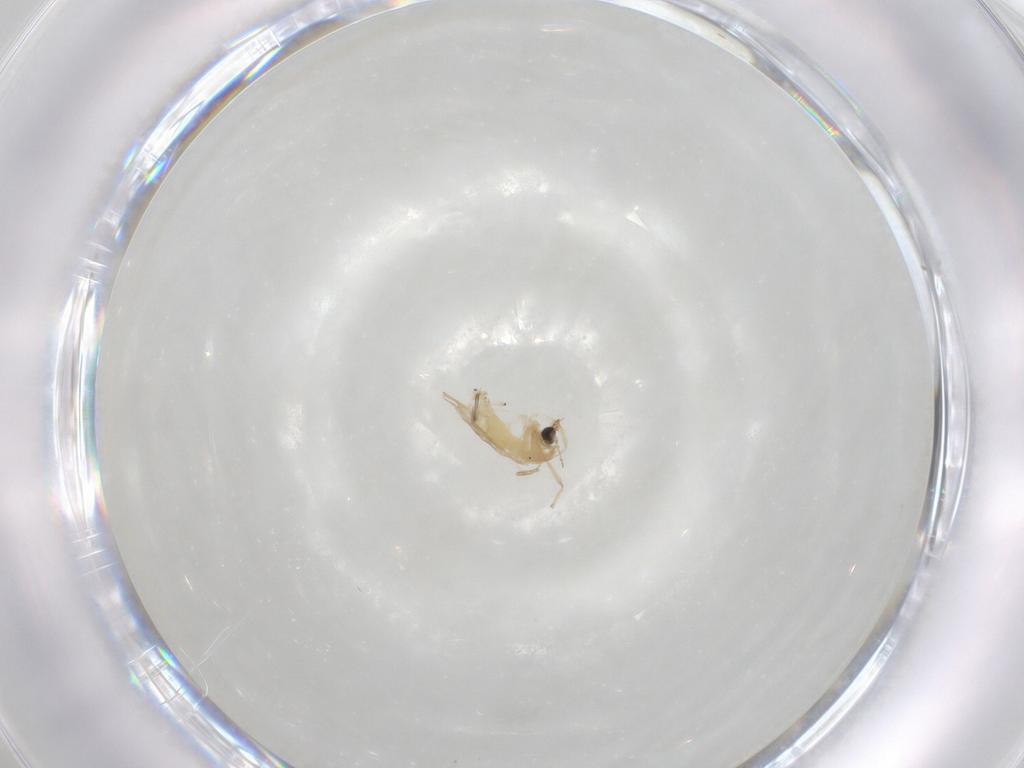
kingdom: Animalia
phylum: Arthropoda
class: Insecta
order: Diptera
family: Chironomidae
